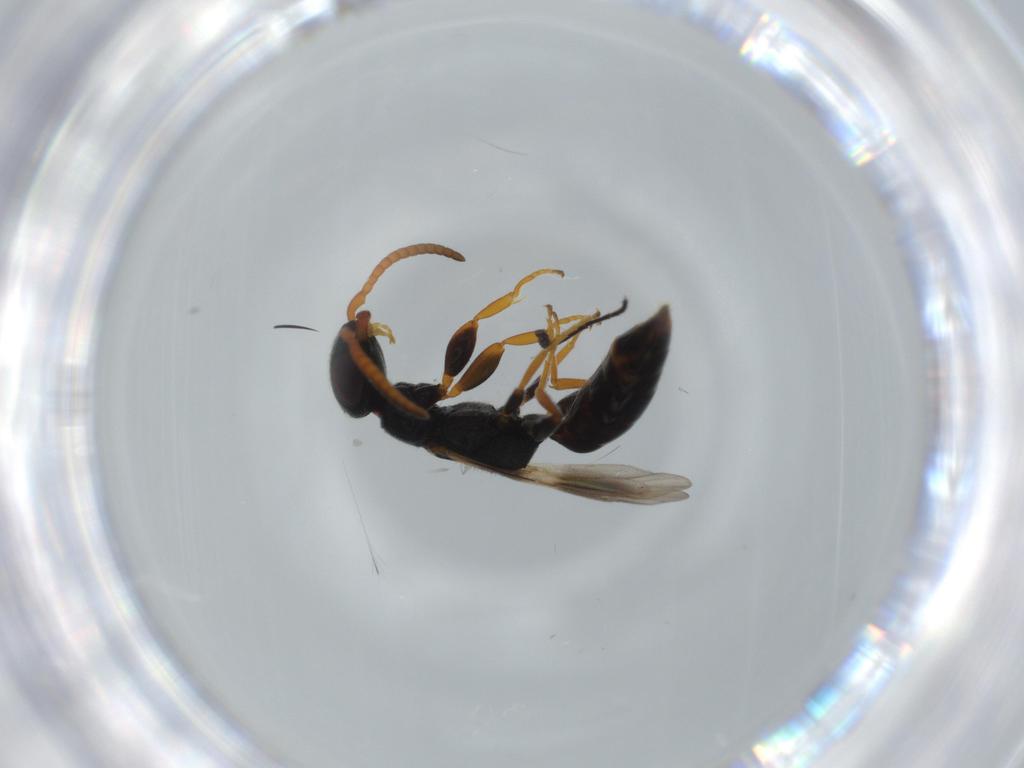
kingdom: Animalia
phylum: Arthropoda
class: Insecta
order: Hymenoptera
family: Bethylidae
